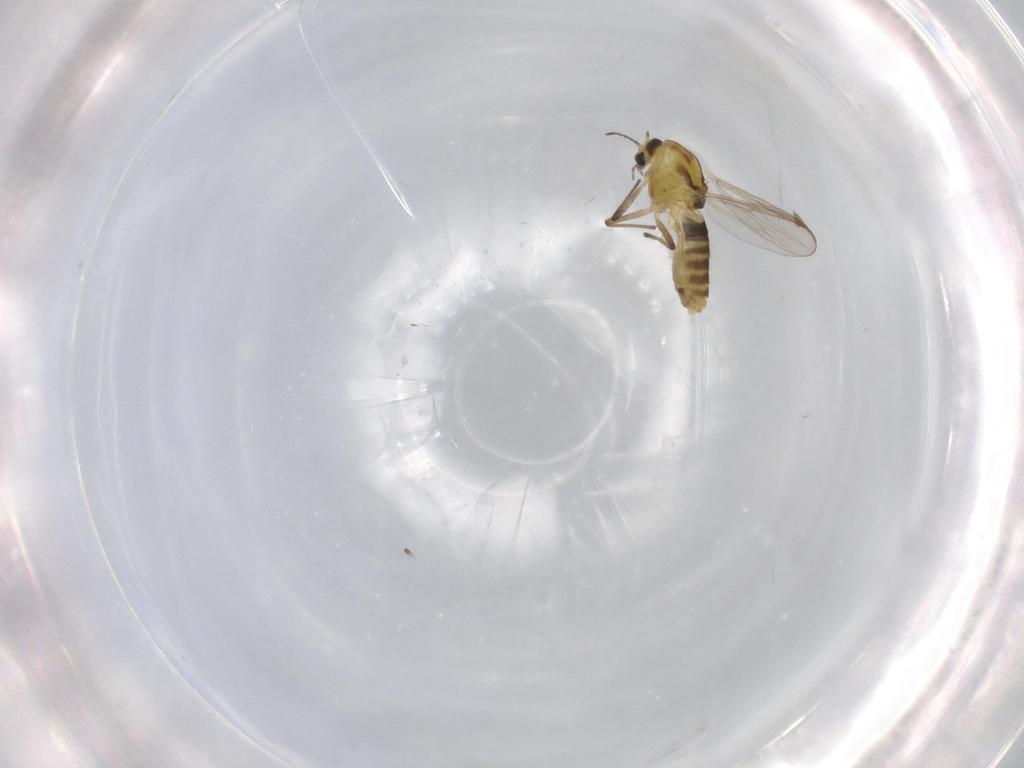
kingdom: Animalia
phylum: Arthropoda
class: Insecta
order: Diptera
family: Chironomidae
